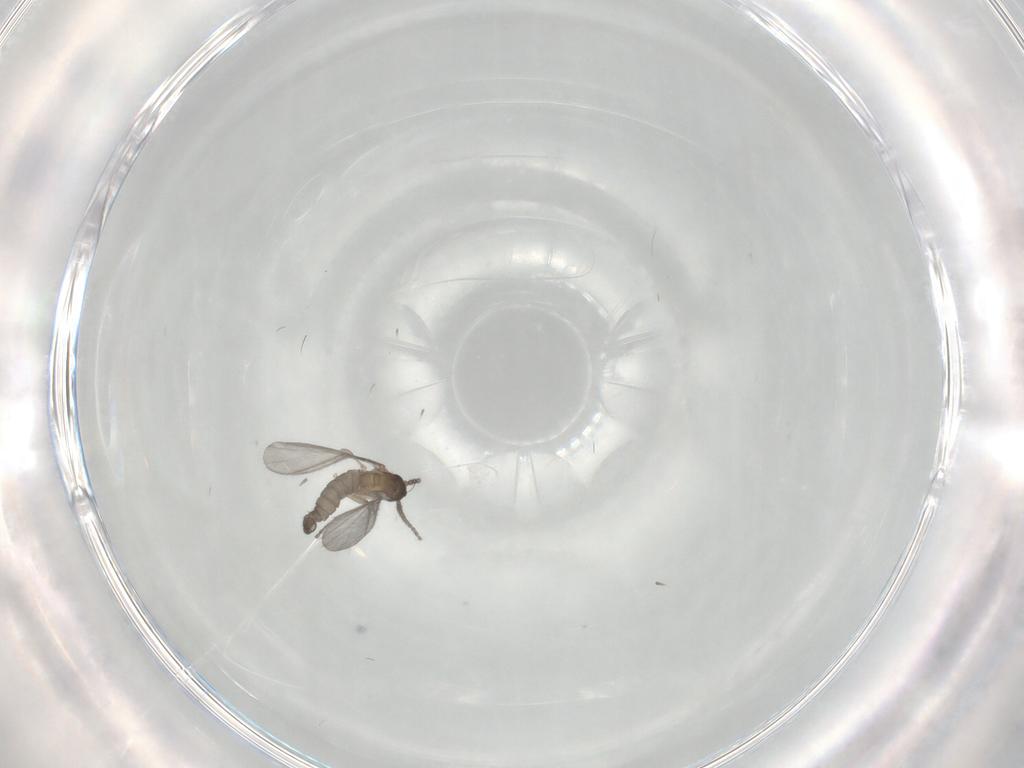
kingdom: Animalia
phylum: Arthropoda
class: Insecta
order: Diptera
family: Sciaridae
